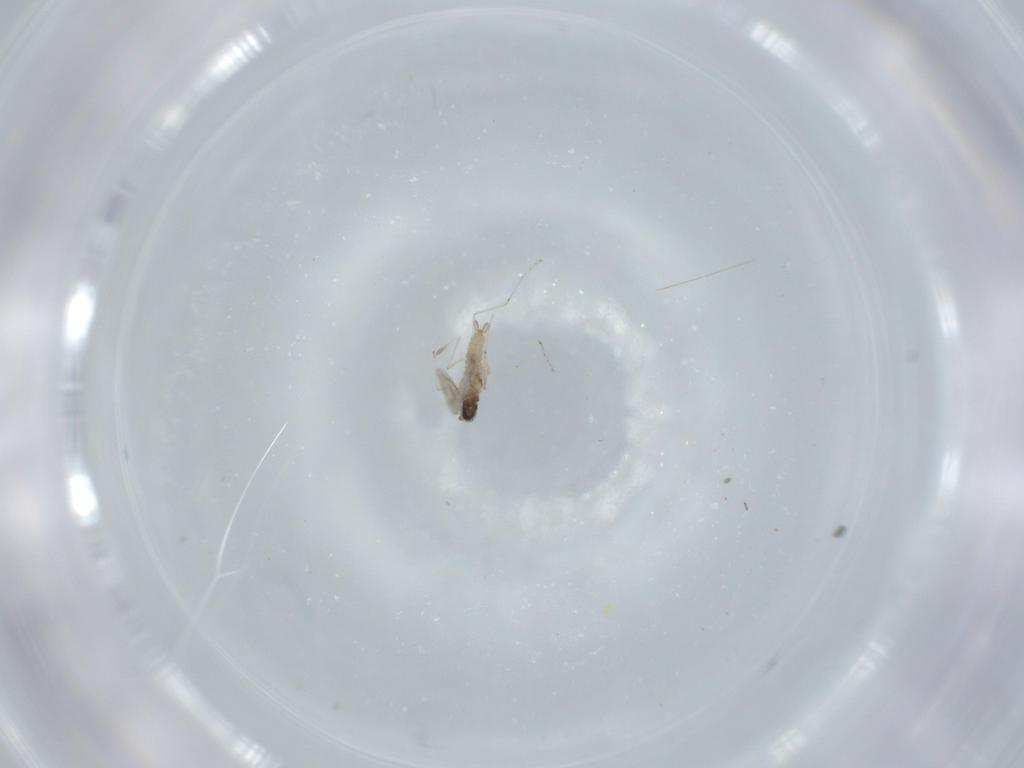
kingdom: Animalia
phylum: Arthropoda
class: Insecta
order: Diptera
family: Cecidomyiidae
